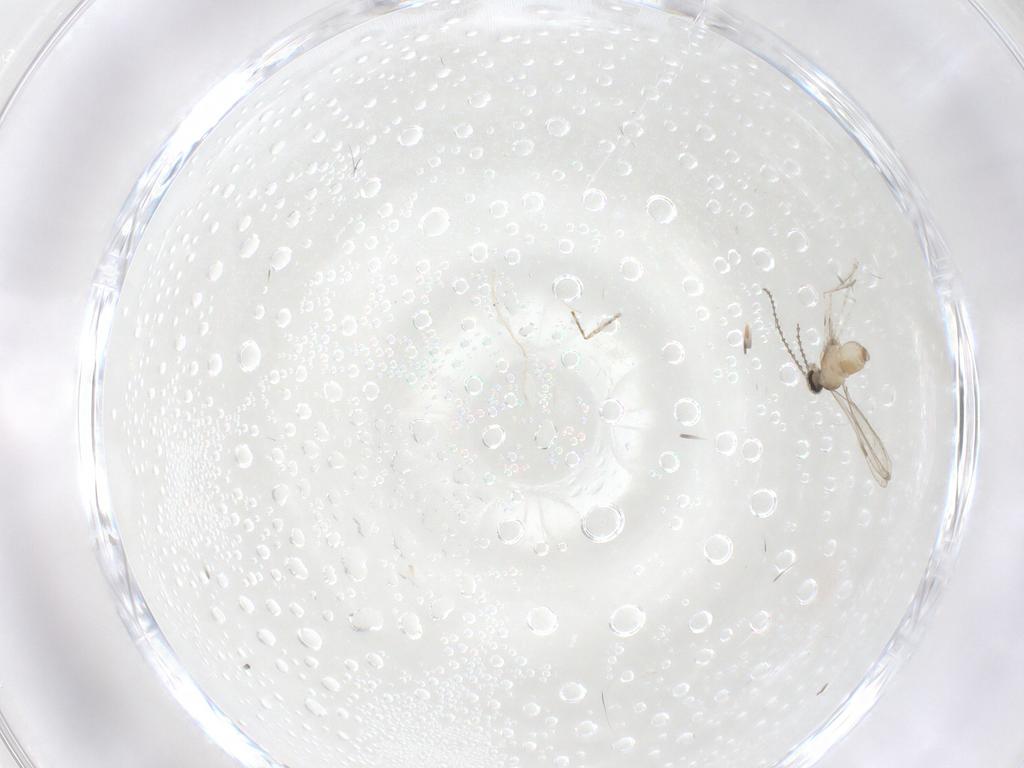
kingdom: Animalia
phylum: Arthropoda
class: Insecta
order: Diptera
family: Cecidomyiidae
